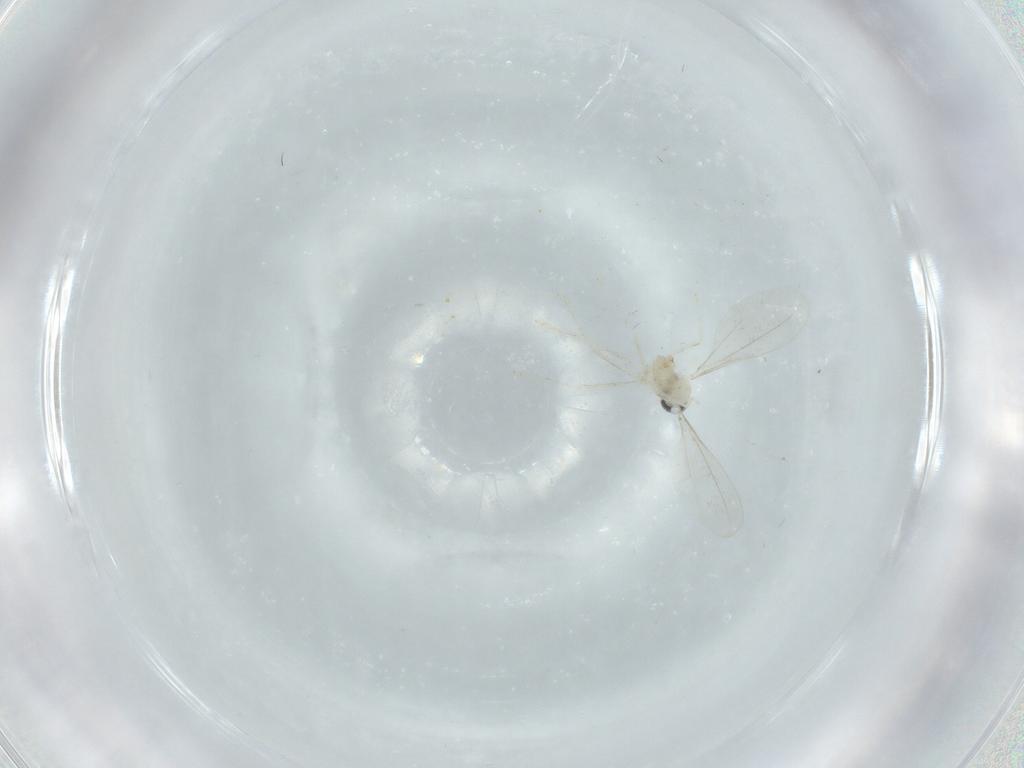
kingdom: Animalia
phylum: Arthropoda
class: Insecta
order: Diptera
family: Cecidomyiidae
